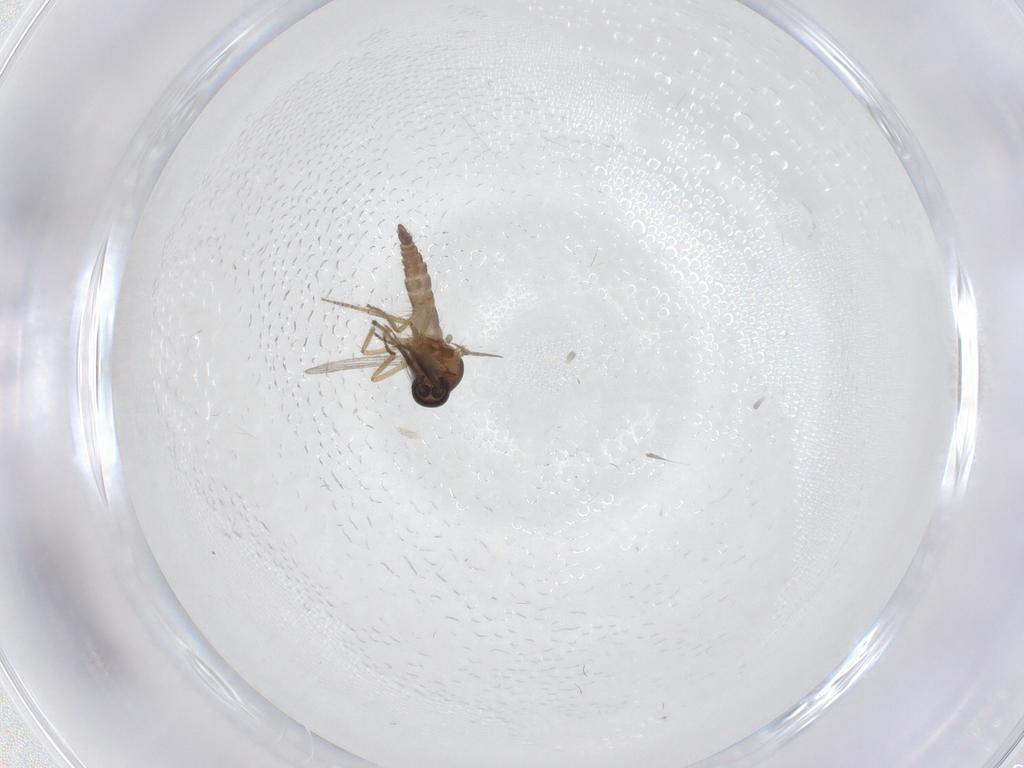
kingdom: Animalia
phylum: Arthropoda
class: Insecta
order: Diptera
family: Ceratopogonidae
